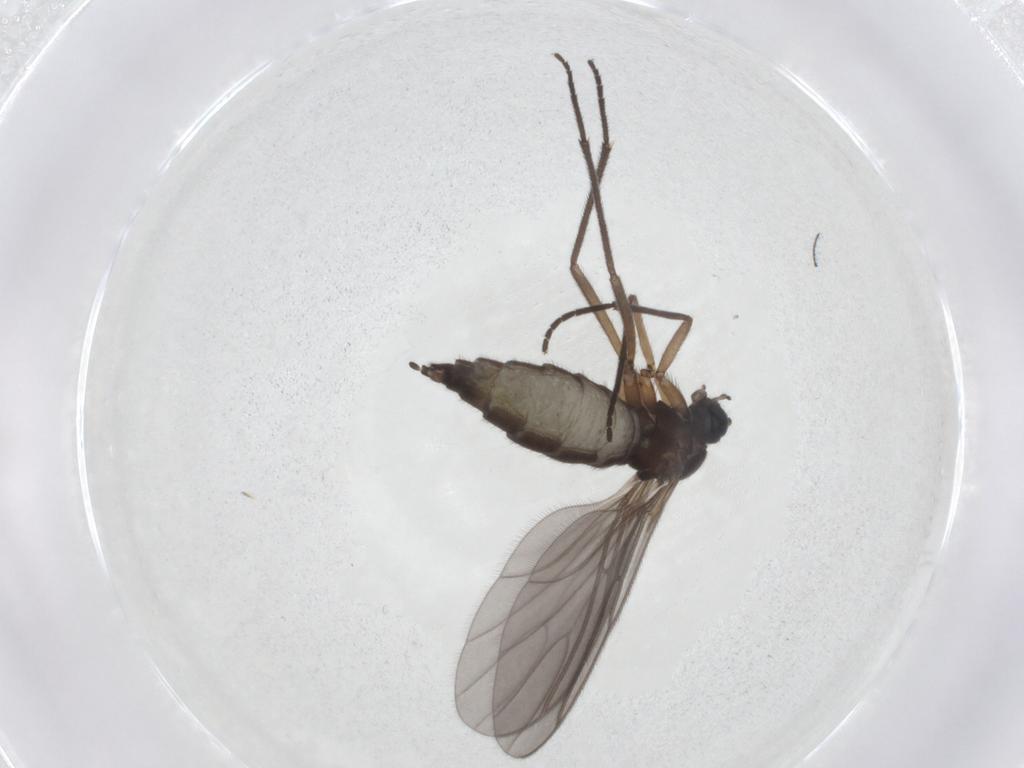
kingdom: Animalia
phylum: Arthropoda
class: Insecta
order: Diptera
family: Sciaridae
